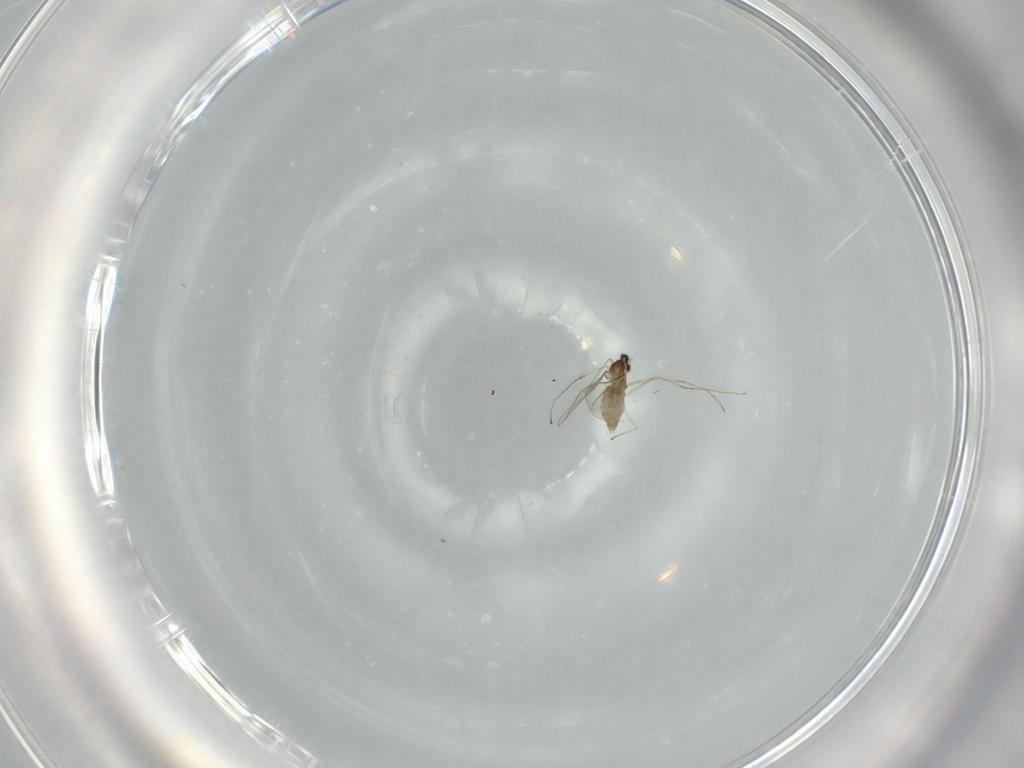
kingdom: Animalia
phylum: Arthropoda
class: Insecta
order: Diptera
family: Cecidomyiidae
